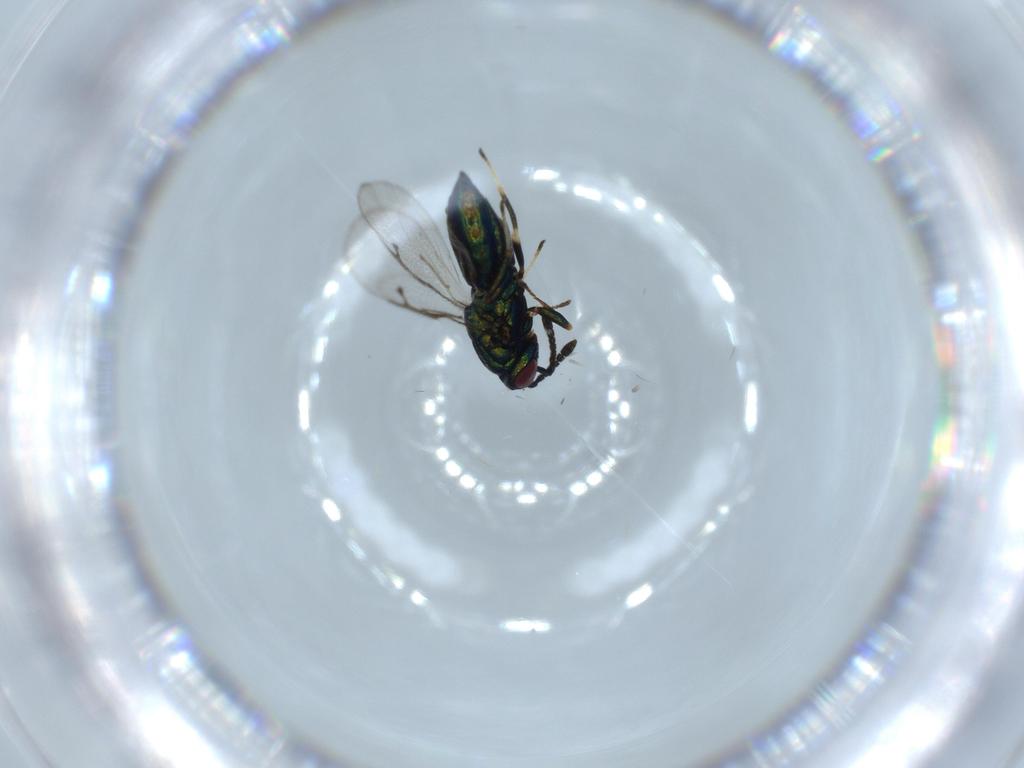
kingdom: Animalia
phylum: Arthropoda
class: Insecta
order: Hymenoptera
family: Pteromalidae
